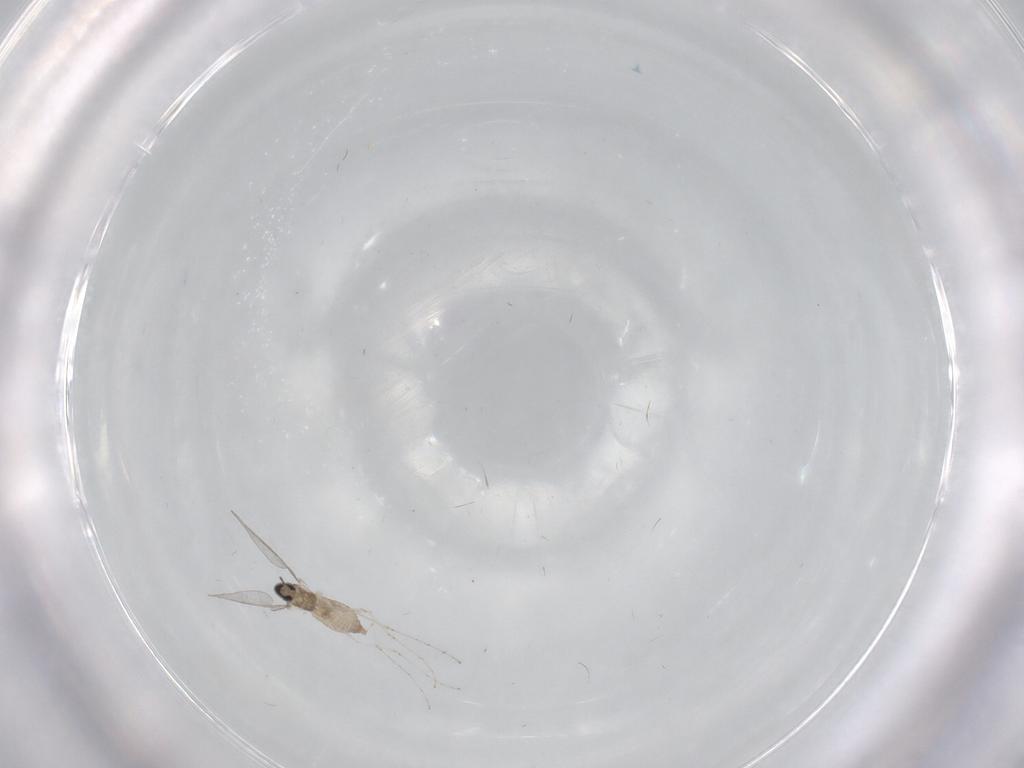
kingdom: Animalia
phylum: Arthropoda
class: Insecta
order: Diptera
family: Cecidomyiidae
